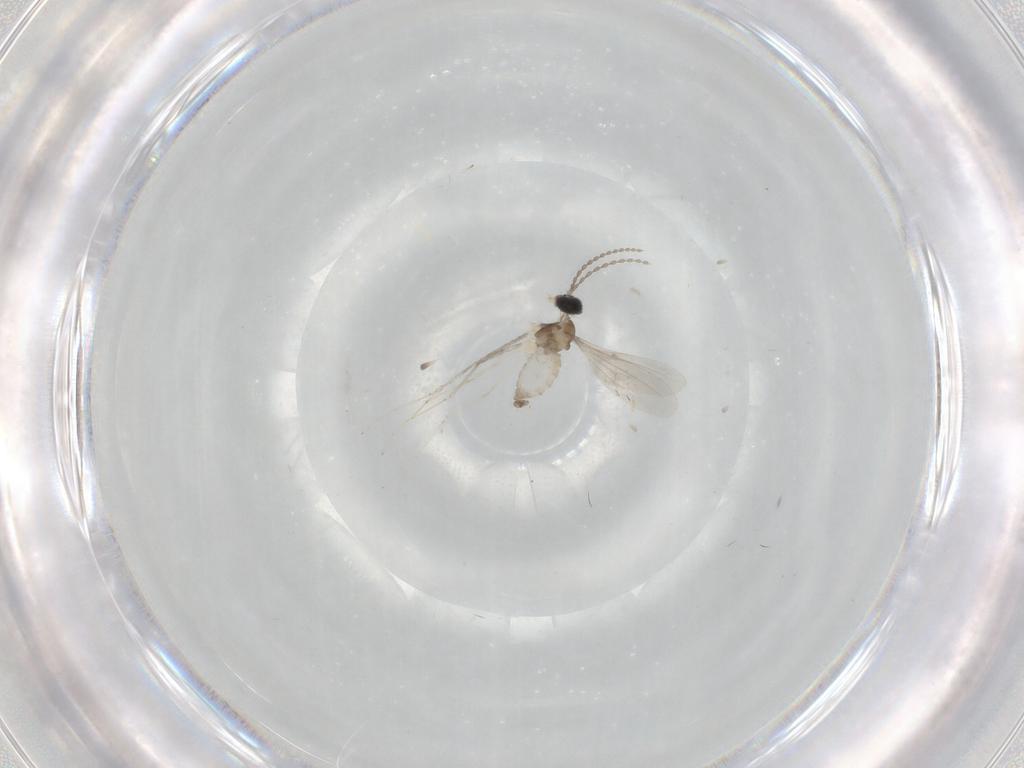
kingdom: Animalia
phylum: Arthropoda
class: Insecta
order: Diptera
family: Cecidomyiidae
